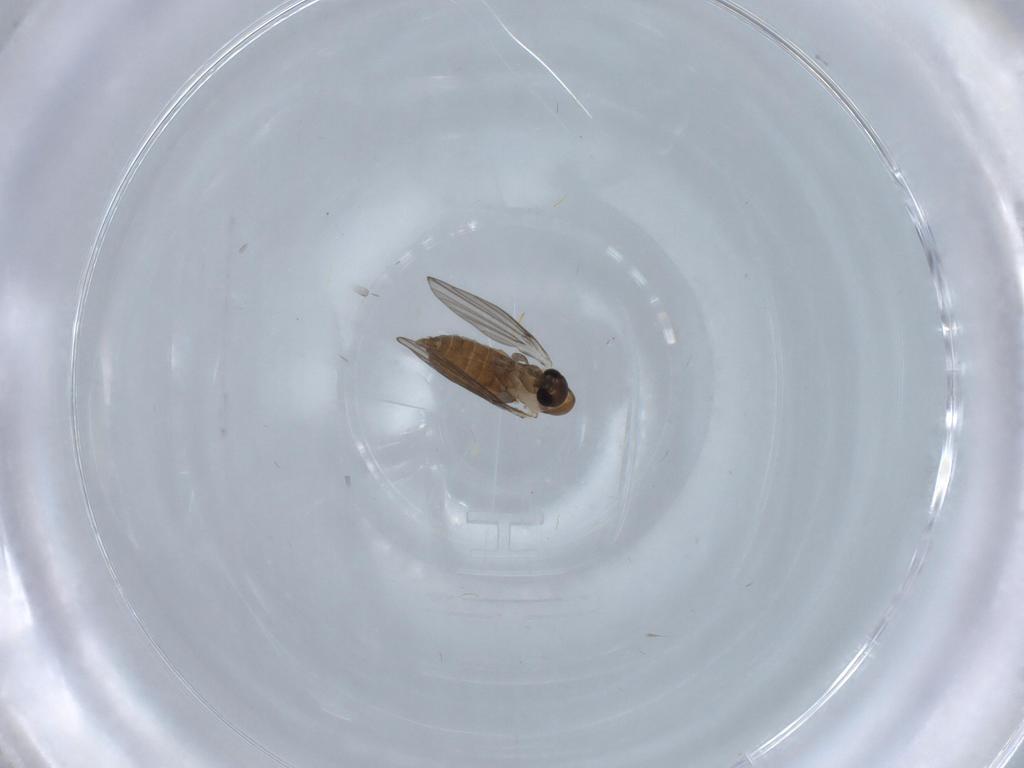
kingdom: Animalia
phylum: Arthropoda
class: Insecta
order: Diptera
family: Psychodidae
